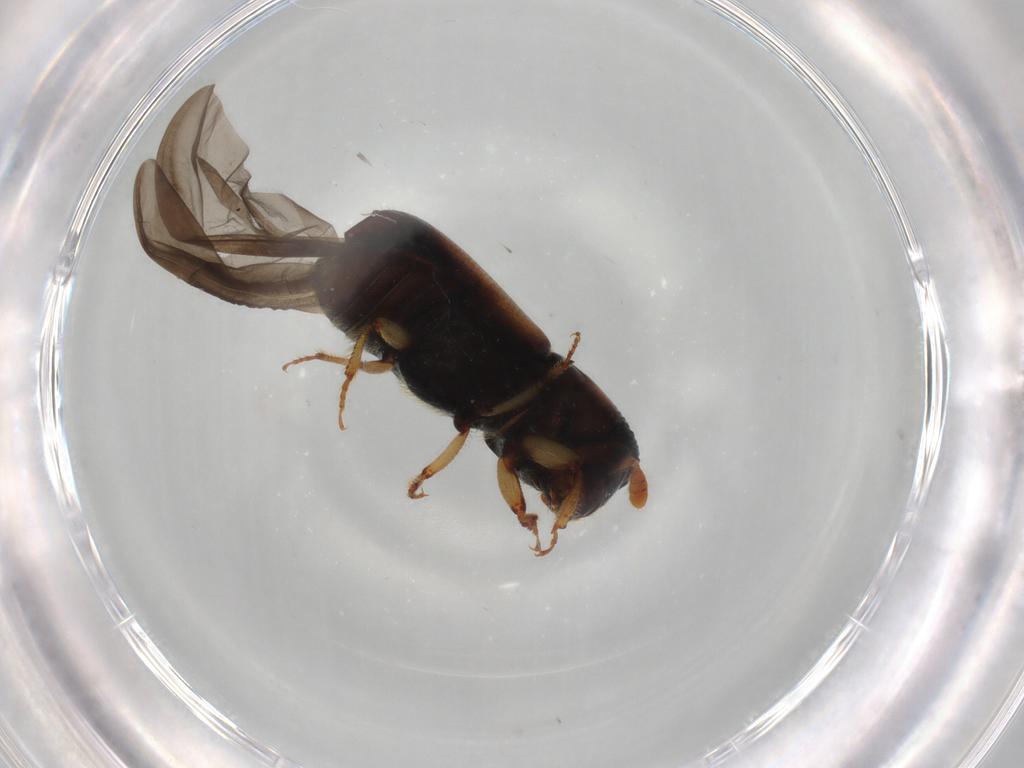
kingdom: Animalia
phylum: Arthropoda
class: Insecta
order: Coleoptera
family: Curculionidae
